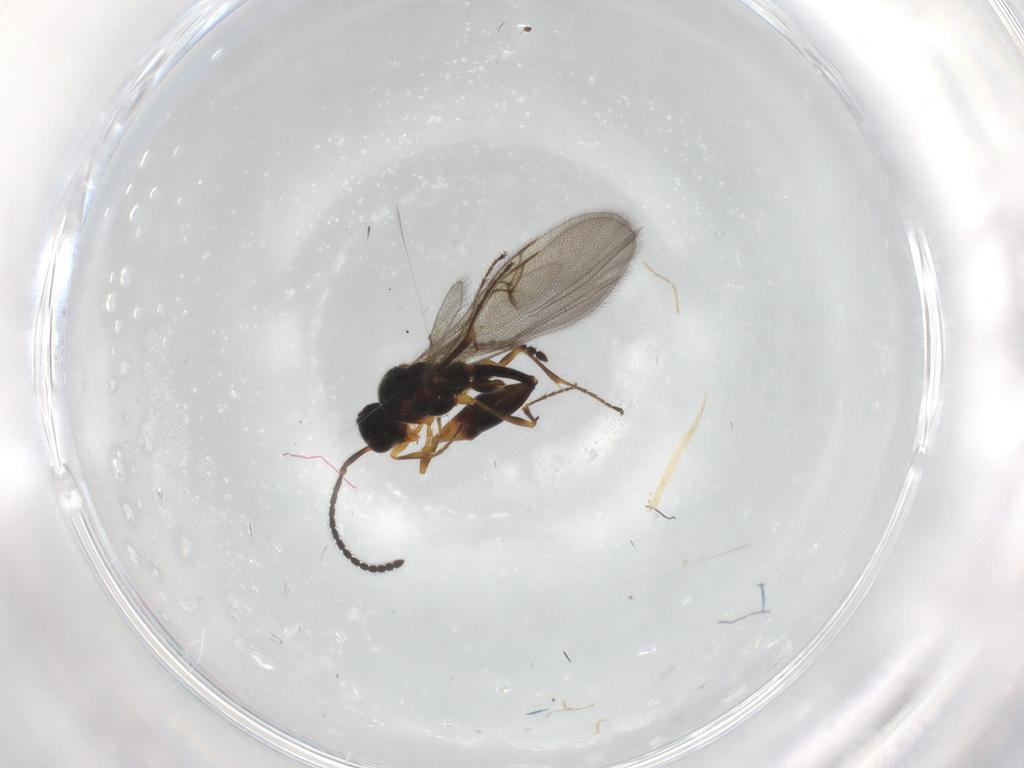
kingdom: Animalia
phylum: Arthropoda
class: Insecta
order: Hymenoptera
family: Diapriidae
